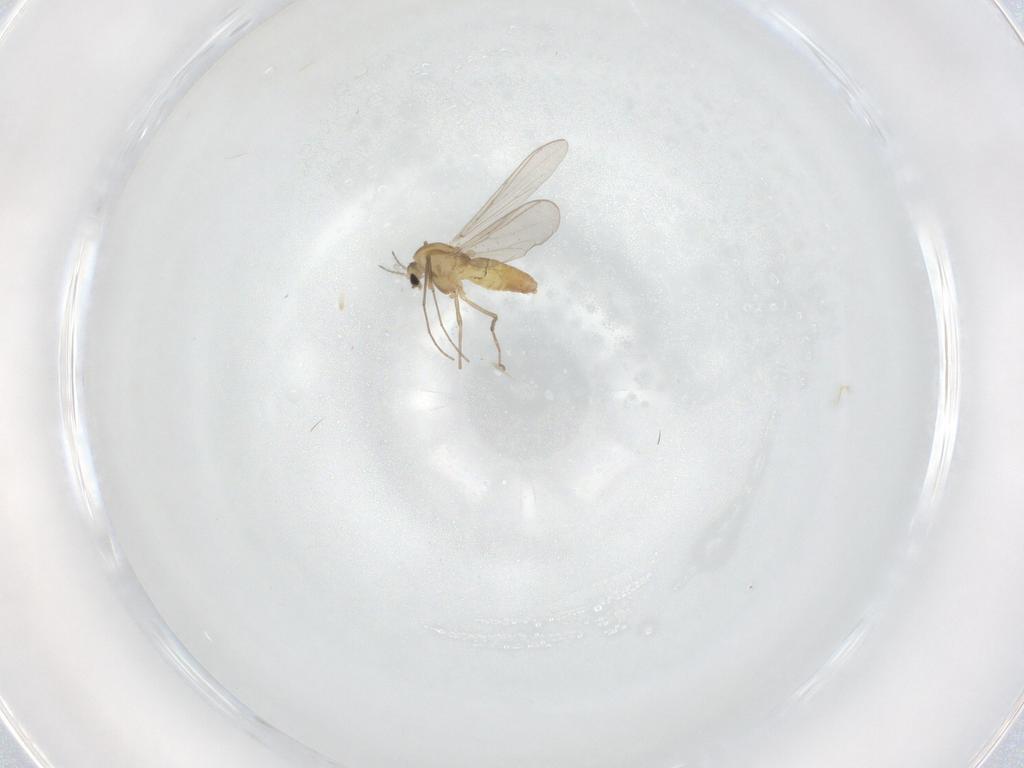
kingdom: Animalia
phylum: Arthropoda
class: Insecta
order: Diptera
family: Chironomidae
